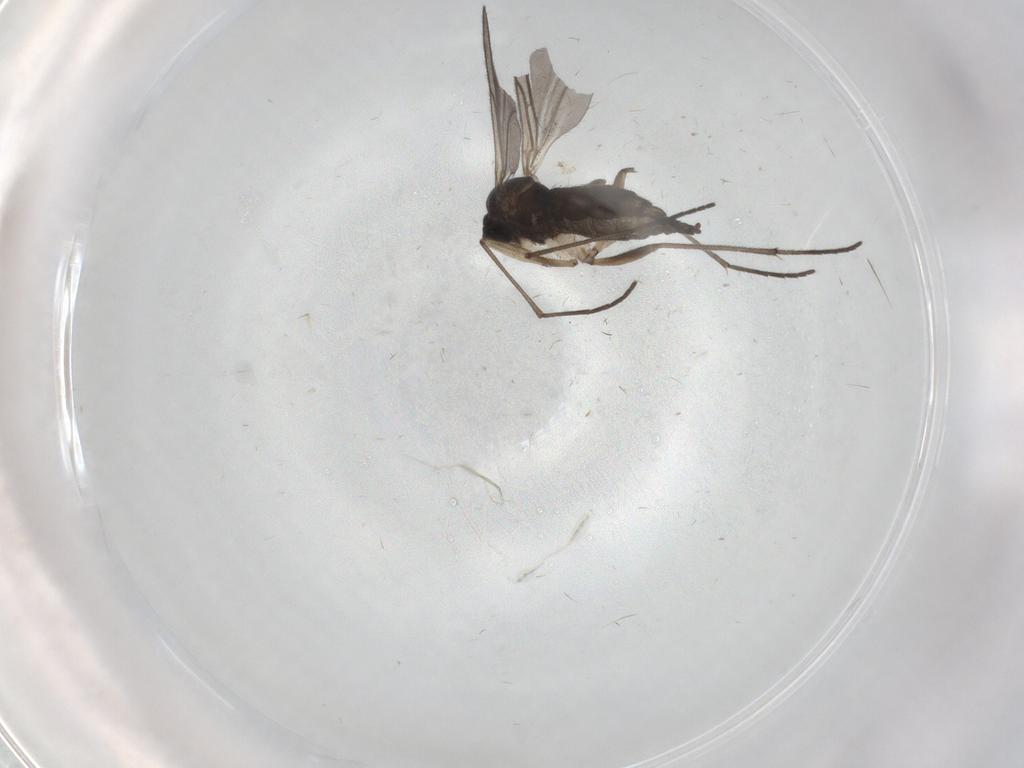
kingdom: Animalia
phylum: Arthropoda
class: Insecta
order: Diptera
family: Sciaridae
